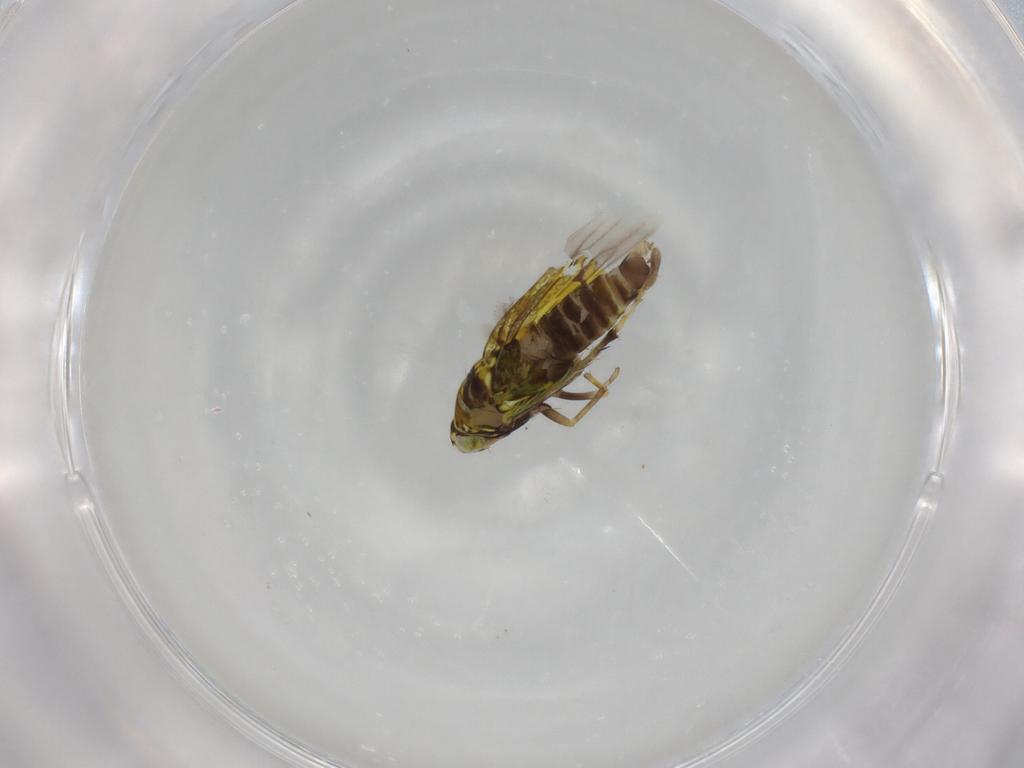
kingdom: Animalia
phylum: Arthropoda
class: Insecta
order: Hemiptera
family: Cicadellidae
